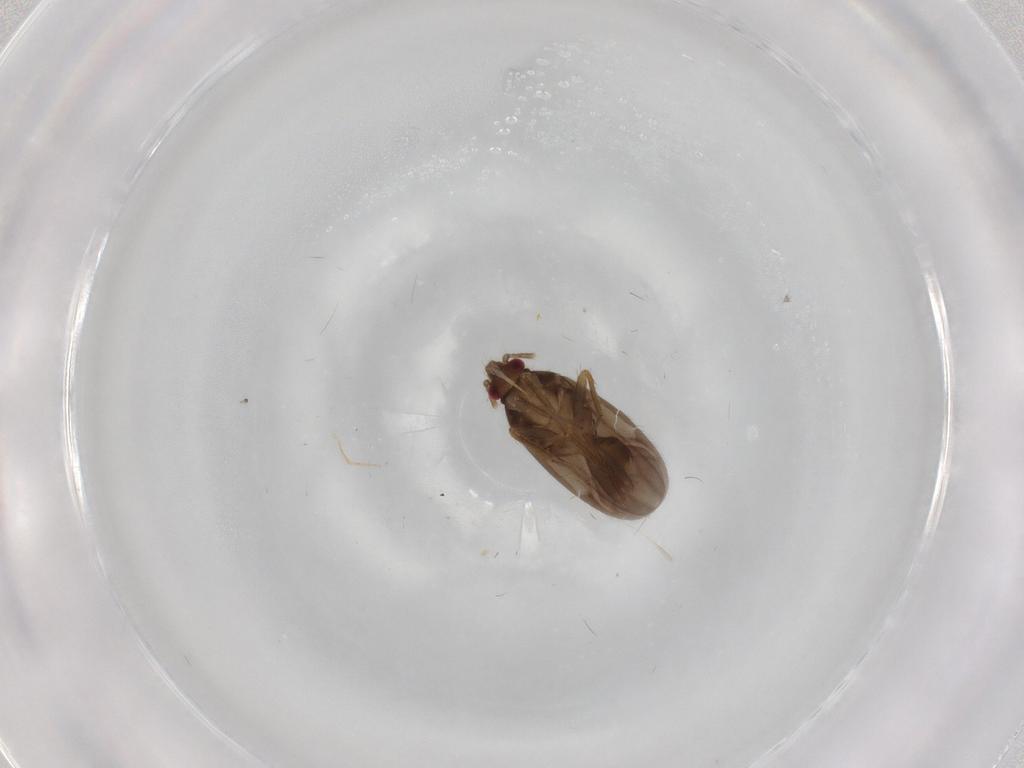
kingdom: Animalia
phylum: Arthropoda
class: Insecta
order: Hemiptera
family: Ceratocombidae
